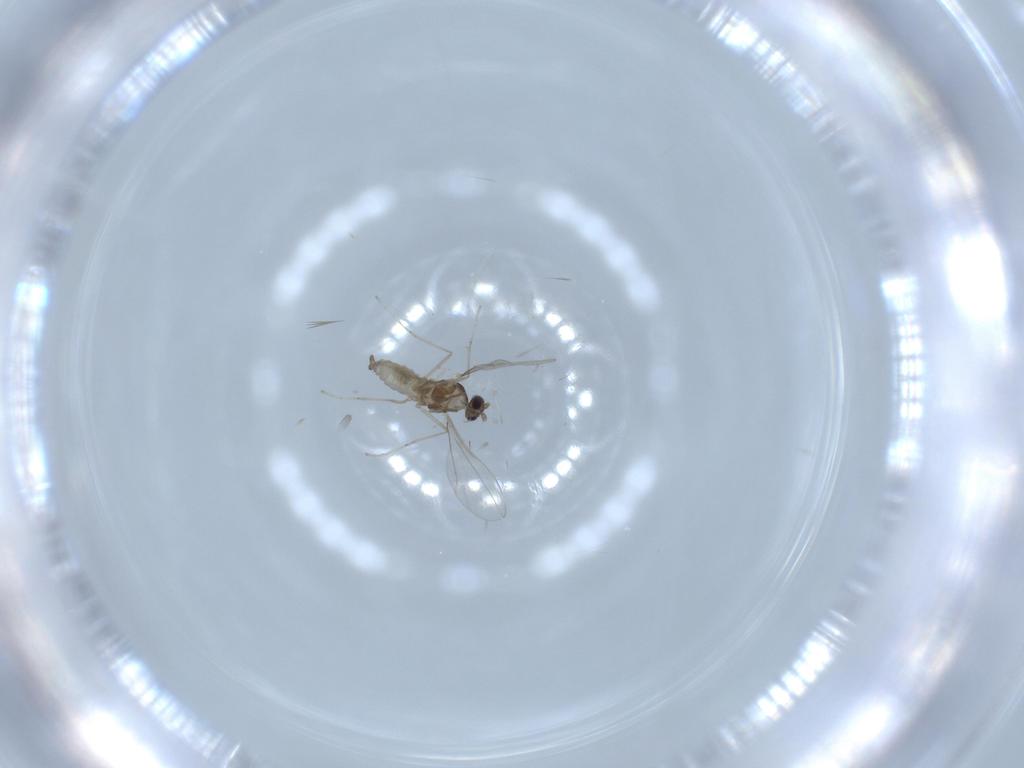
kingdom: Animalia
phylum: Arthropoda
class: Insecta
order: Diptera
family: Cecidomyiidae
